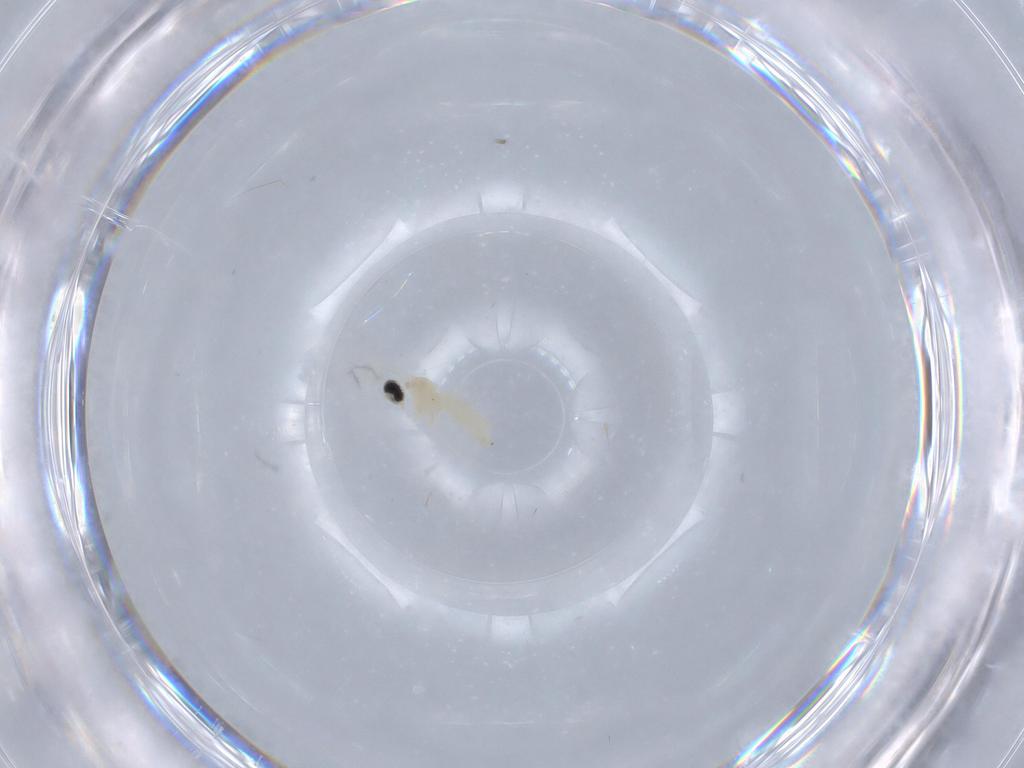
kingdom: Animalia
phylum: Arthropoda
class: Insecta
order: Diptera
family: Cecidomyiidae
